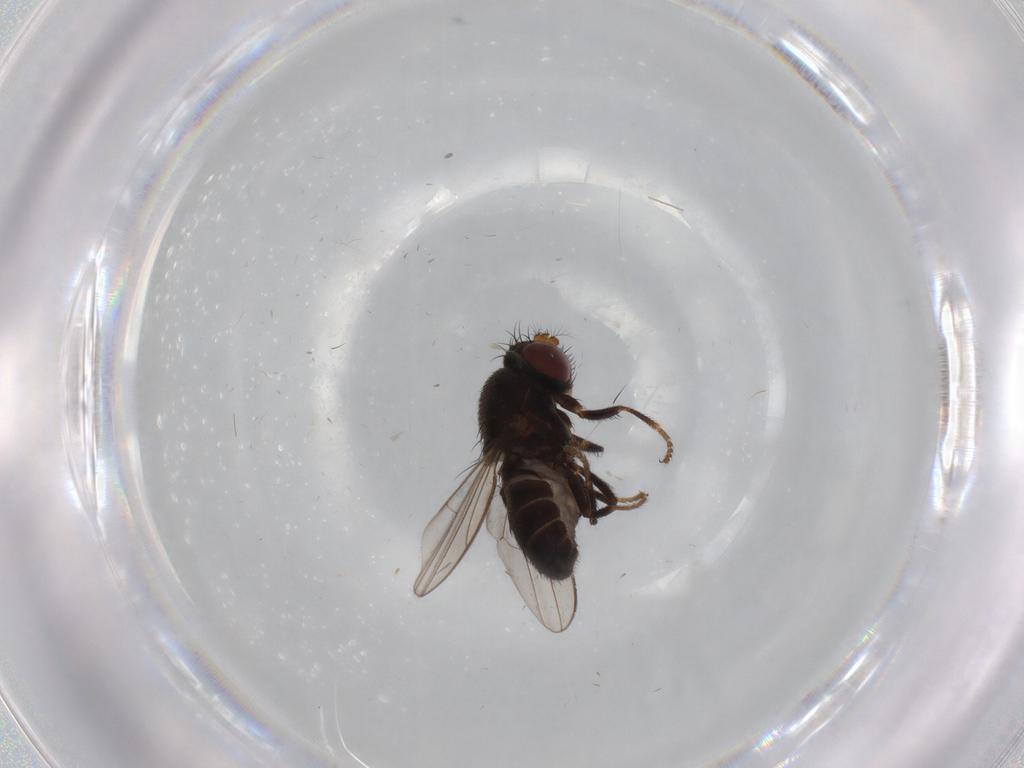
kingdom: Animalia
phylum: Arthropoda
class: Insecta
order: Diptera
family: Ephydridae
